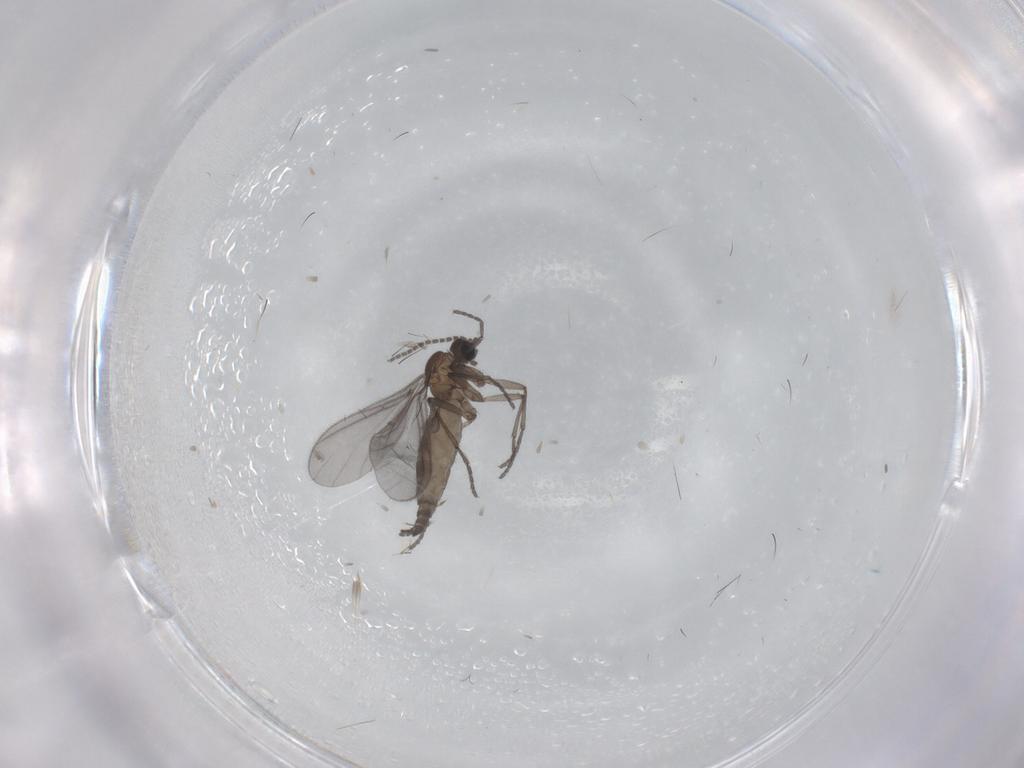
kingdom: Animalia
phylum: Arthropoda
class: Insecta
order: Diptera
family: Sciaridae
